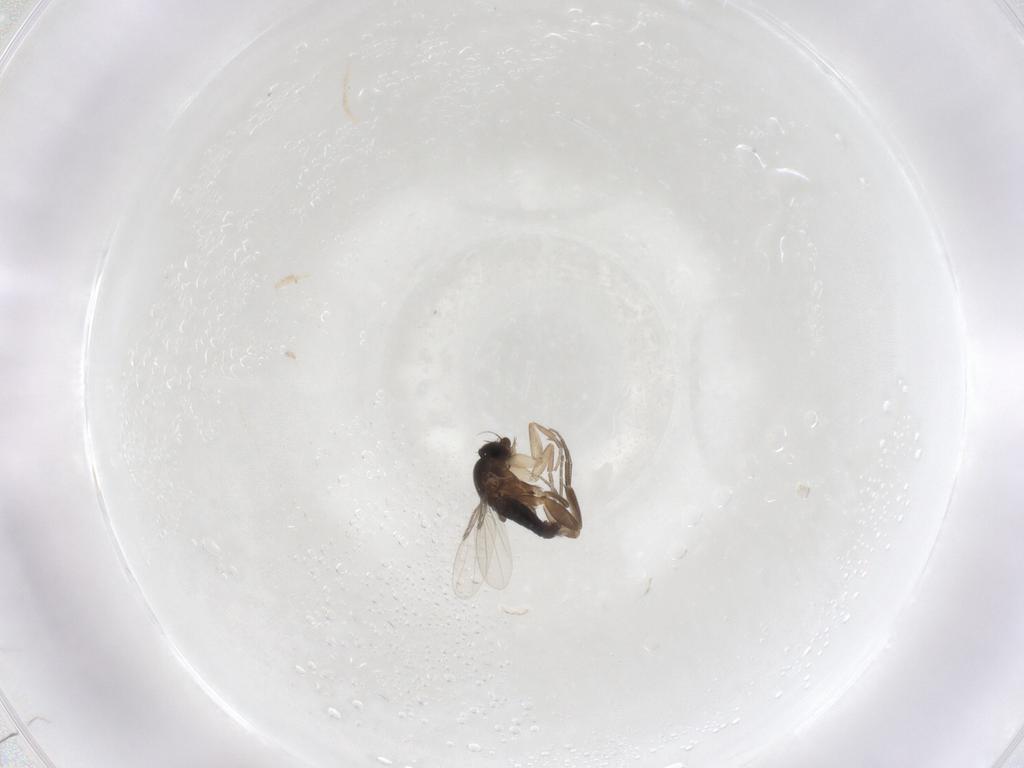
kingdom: Animalia
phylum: Arthropoda
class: Insecta
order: Diptera
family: Phoridae
